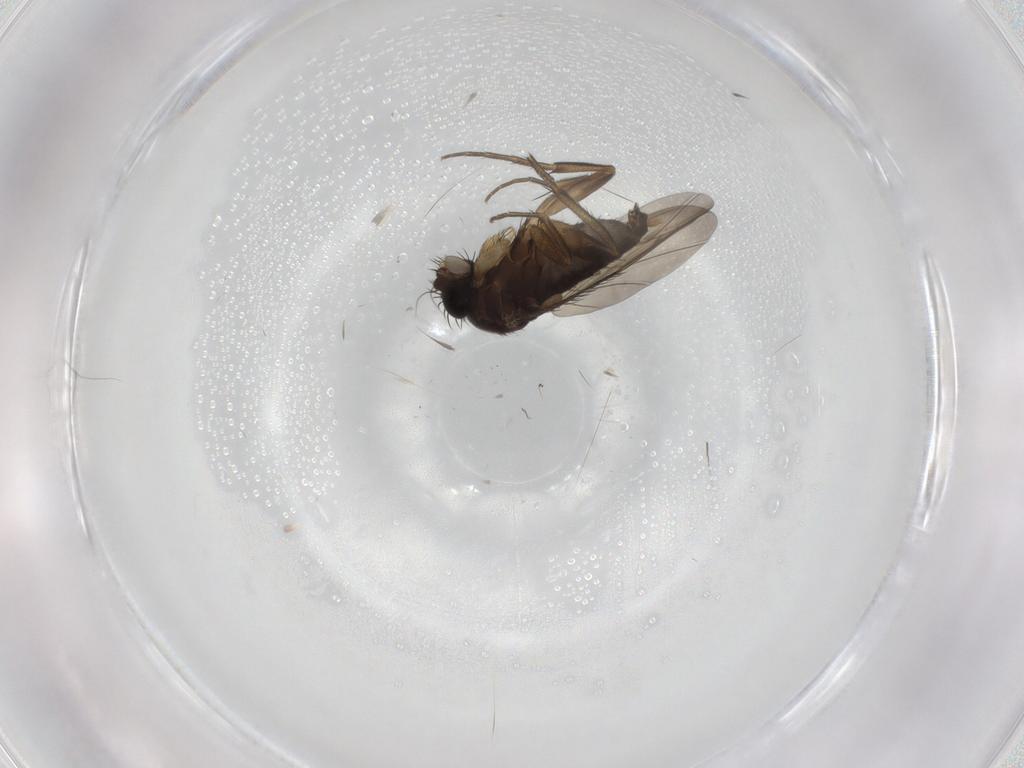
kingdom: Animalia
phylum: Arthropoda
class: Insecta
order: Diptera
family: Phoridae
